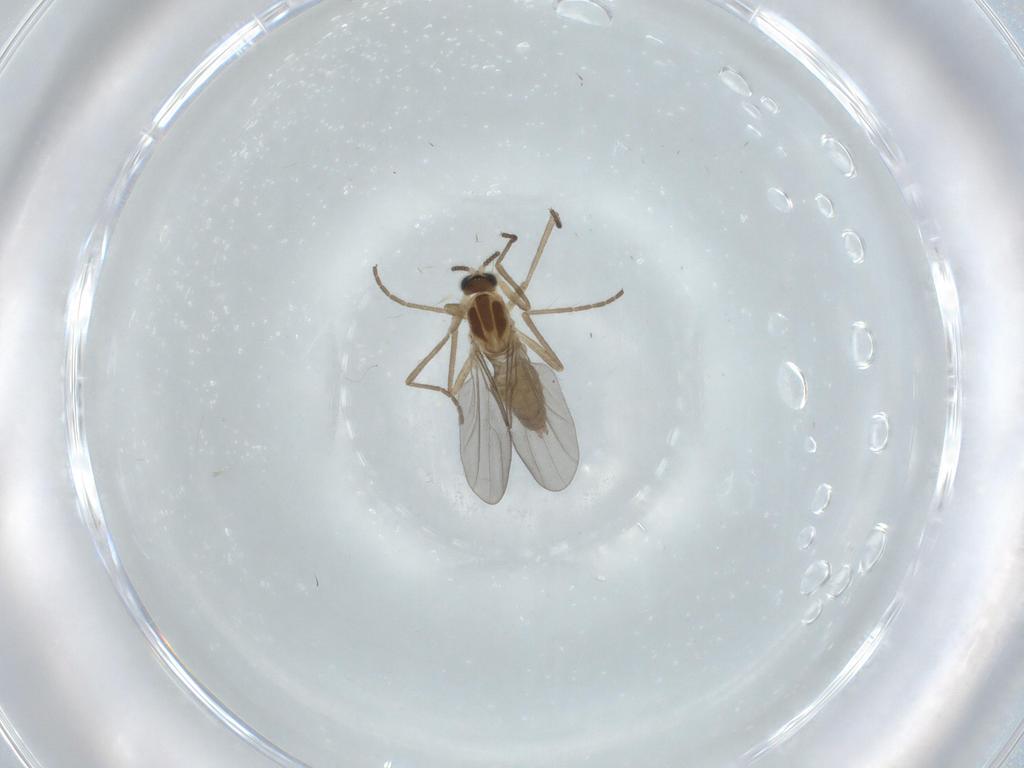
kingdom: Animalia
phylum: Arthropoda
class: Insecta
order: Diptera
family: Cecidomyiidae
